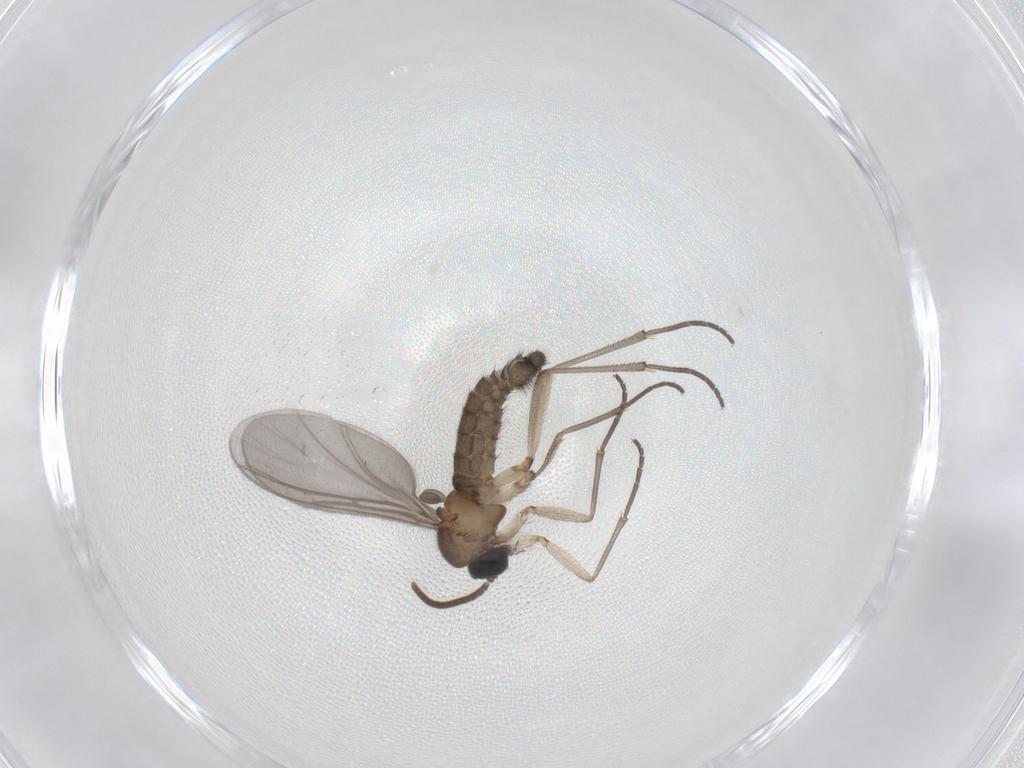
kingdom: Animalia
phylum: Arthropoda
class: Insecta
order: Diptera
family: Mycetophilidae
